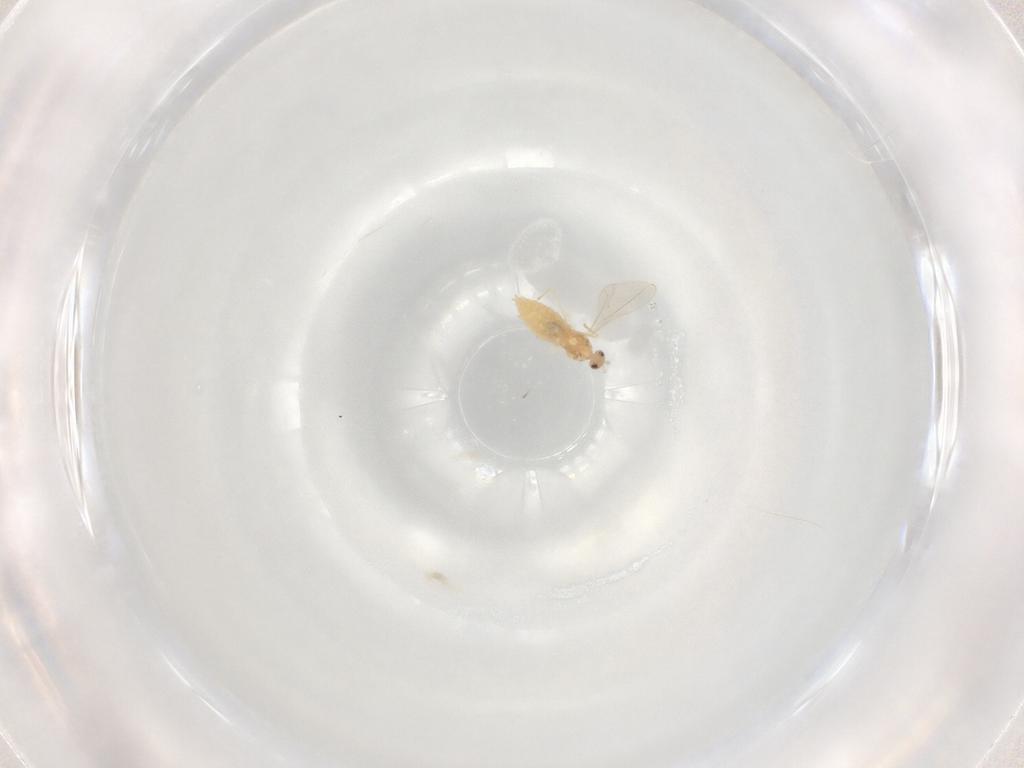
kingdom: Animalia
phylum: Arthropoda
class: Insecta
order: Diptera
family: Cecidomyiidae
